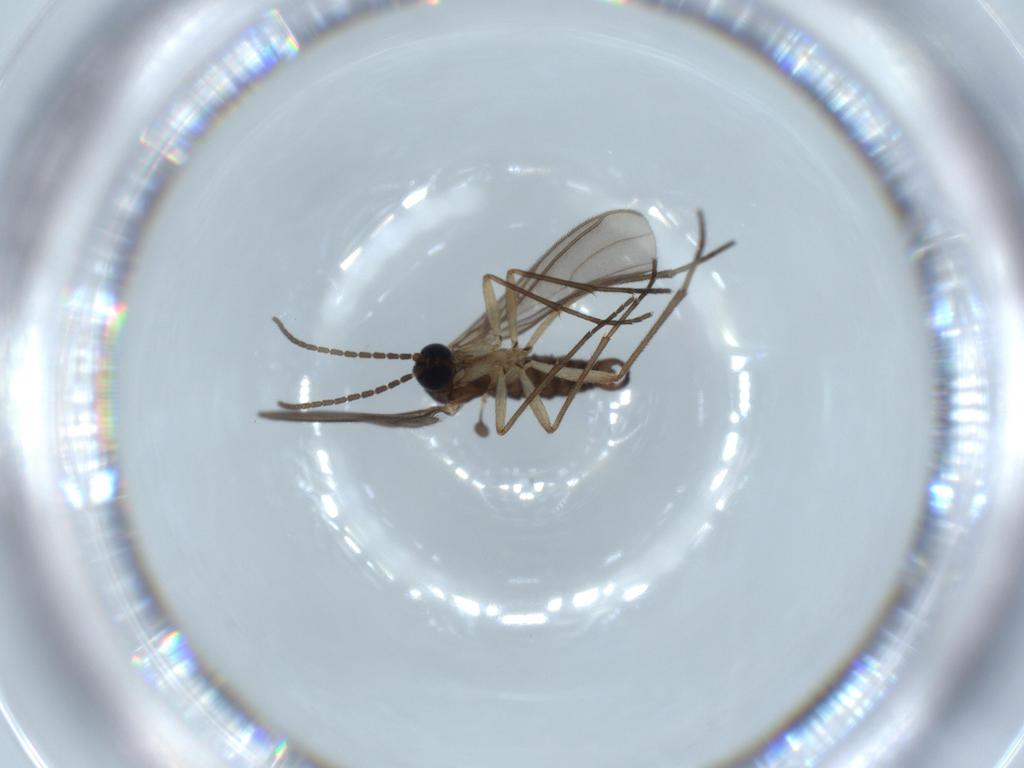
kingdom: Animalia
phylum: Arthropoda
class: Insecta
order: Diptera
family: Sciaridae
